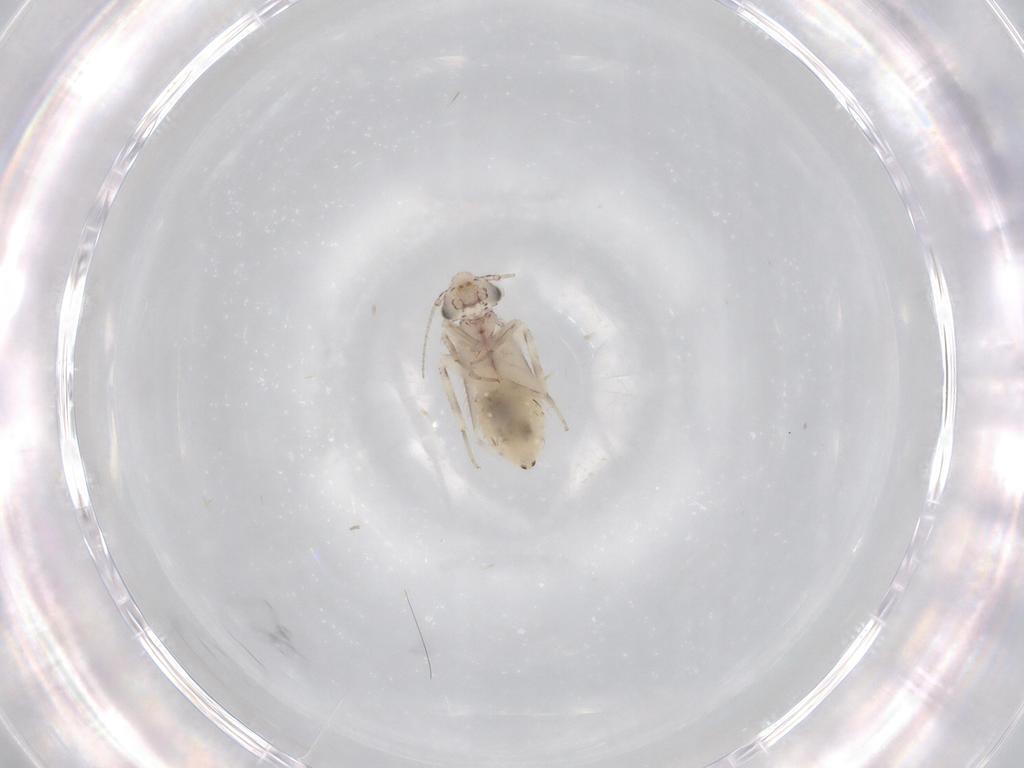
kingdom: Animalia
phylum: Arthropoda
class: Insecta
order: Psocodea
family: Lepidopsocidae
